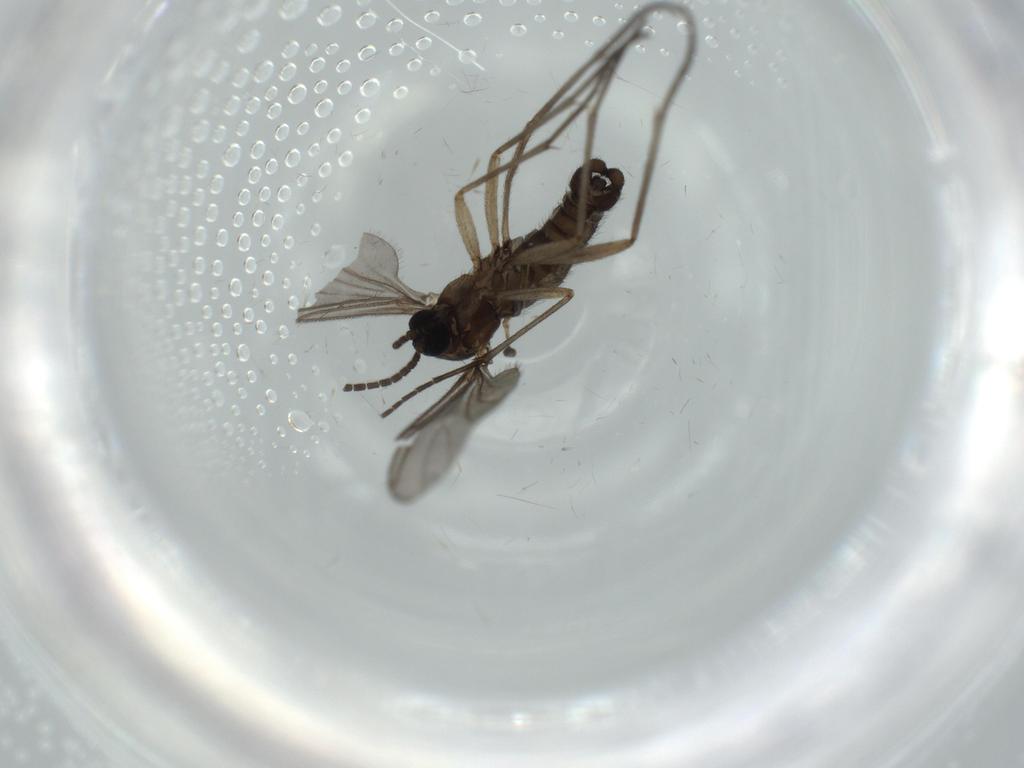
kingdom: Animalia
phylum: Arthropoda
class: Insecta
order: Diptera
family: Sciaridae
